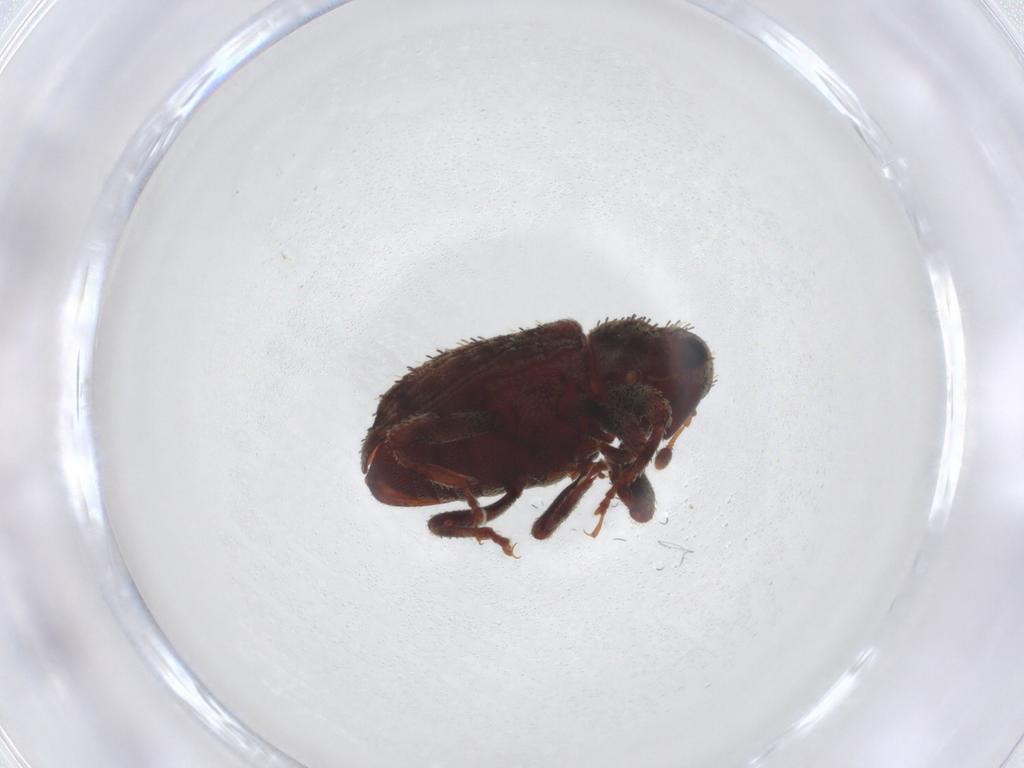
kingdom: Animalia
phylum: Arthropoda
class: Insecta
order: Coleoptera
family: Curculionidae
